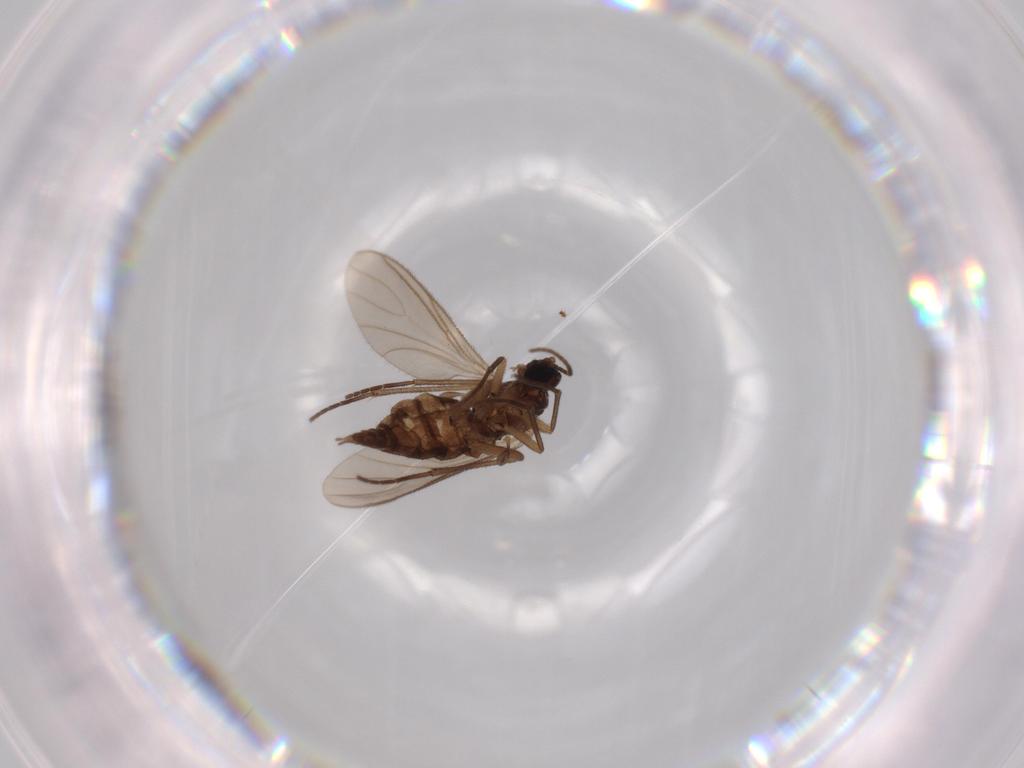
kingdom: Animalia
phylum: Arthropoda
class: Insecta
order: Diptera
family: Sciaridae
